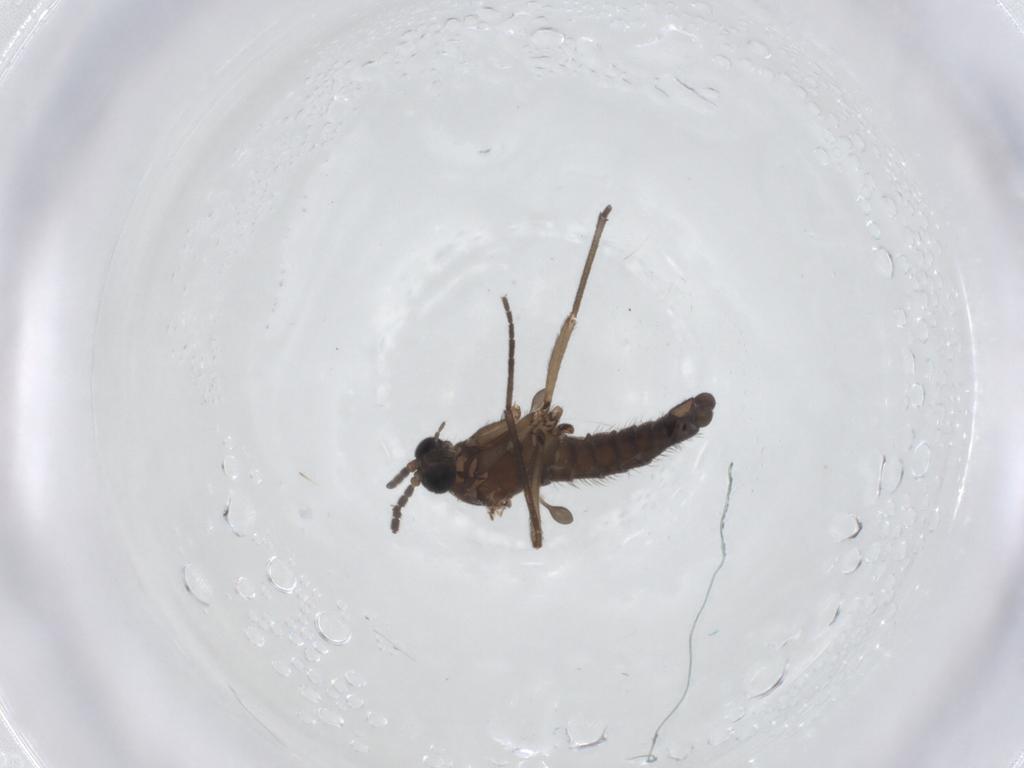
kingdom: Animalia
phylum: Arthropoda
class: Insecta
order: Diptera
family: Sciaridae
